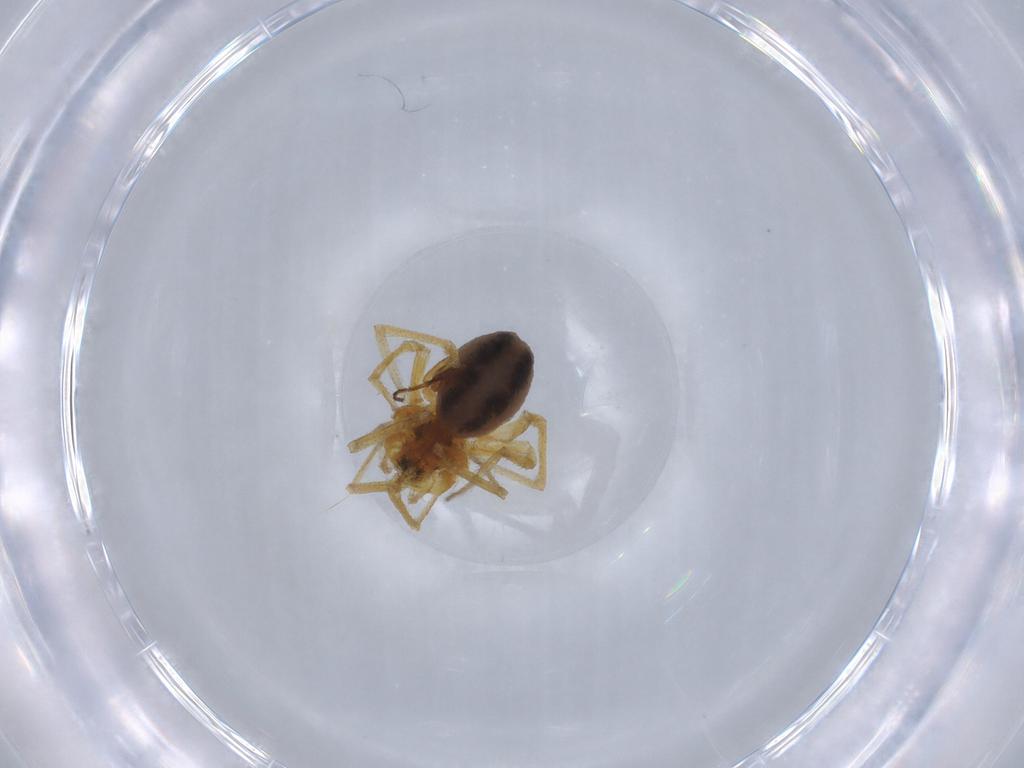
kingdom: Animalia
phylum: Arthropoda
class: Arachnida
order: Araneae
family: Linyphiidae
